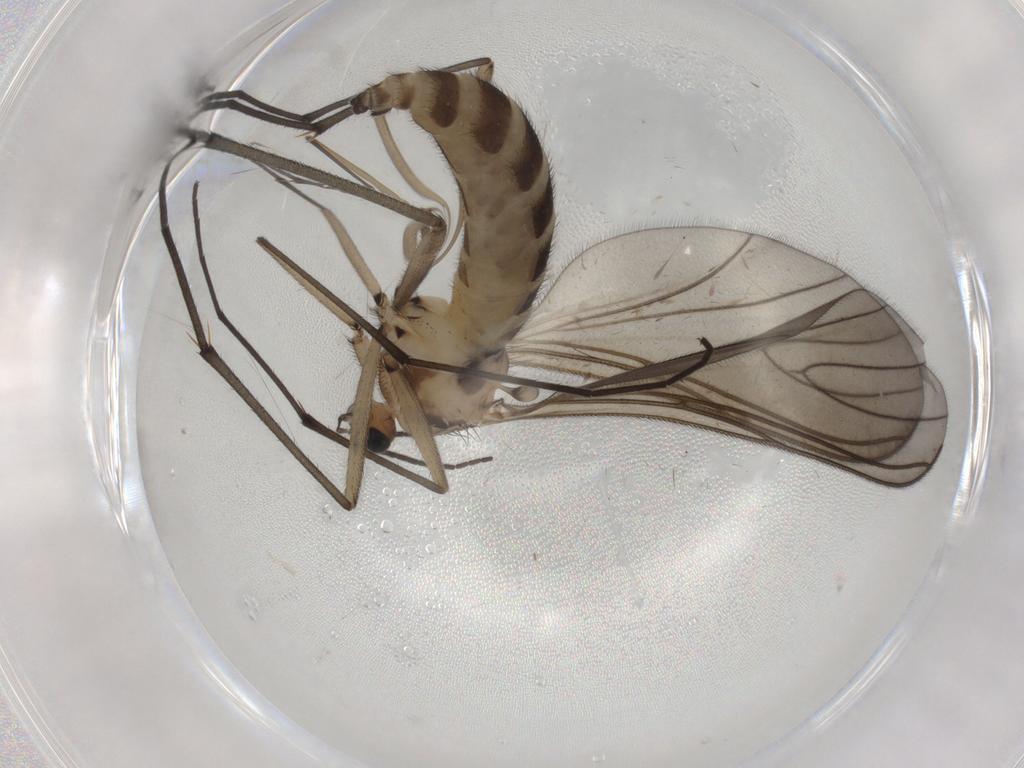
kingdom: Animalia
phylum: Arthropoda
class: Insecta
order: Diptera
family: Sciaridae
